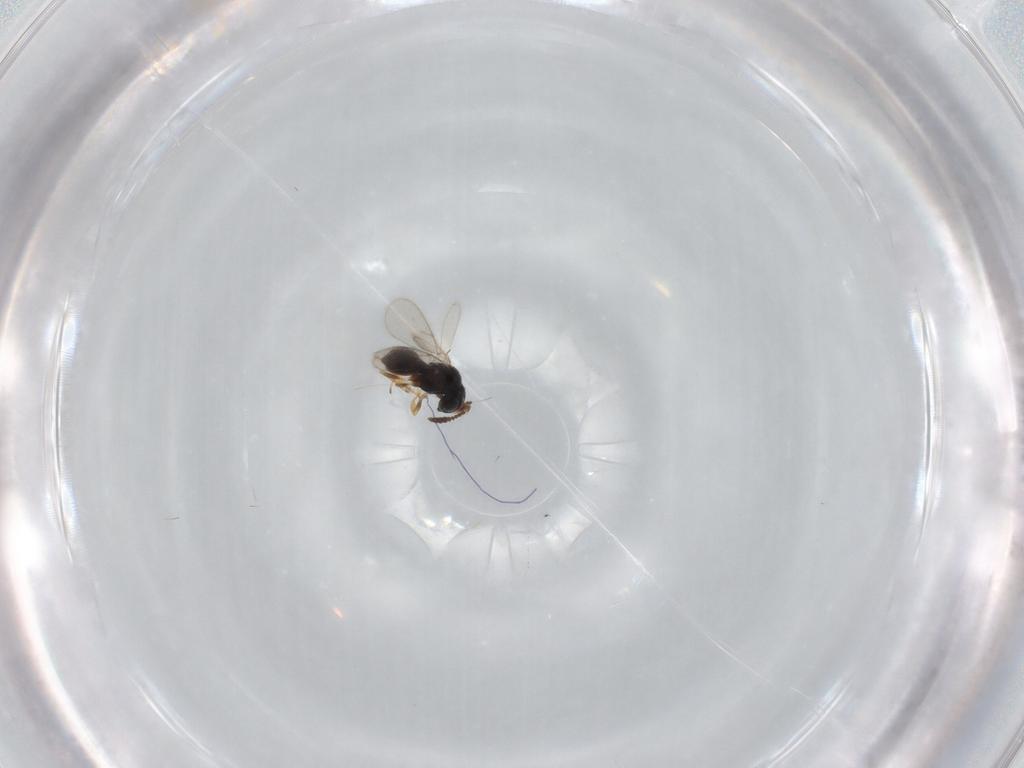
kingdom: Animalia
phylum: Arthropoda
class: Insecta
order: Hymenoptera
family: Scelionidae
